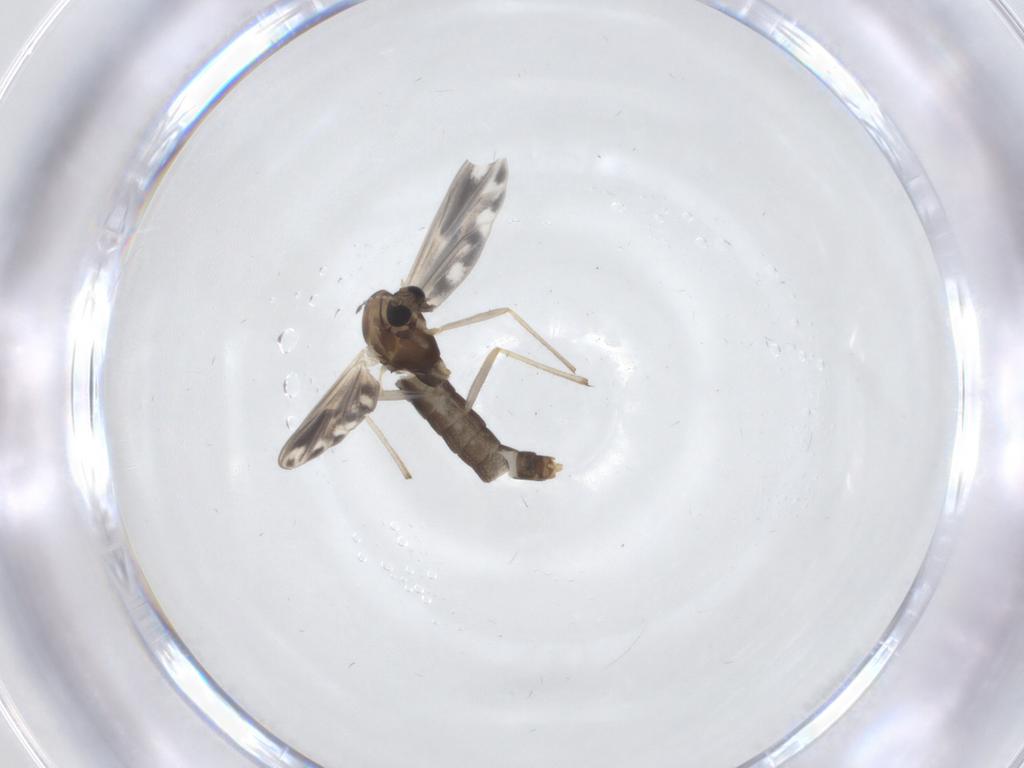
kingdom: Animalia
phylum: Arthropoda
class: Insecta
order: Diptera
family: Chironomidae
